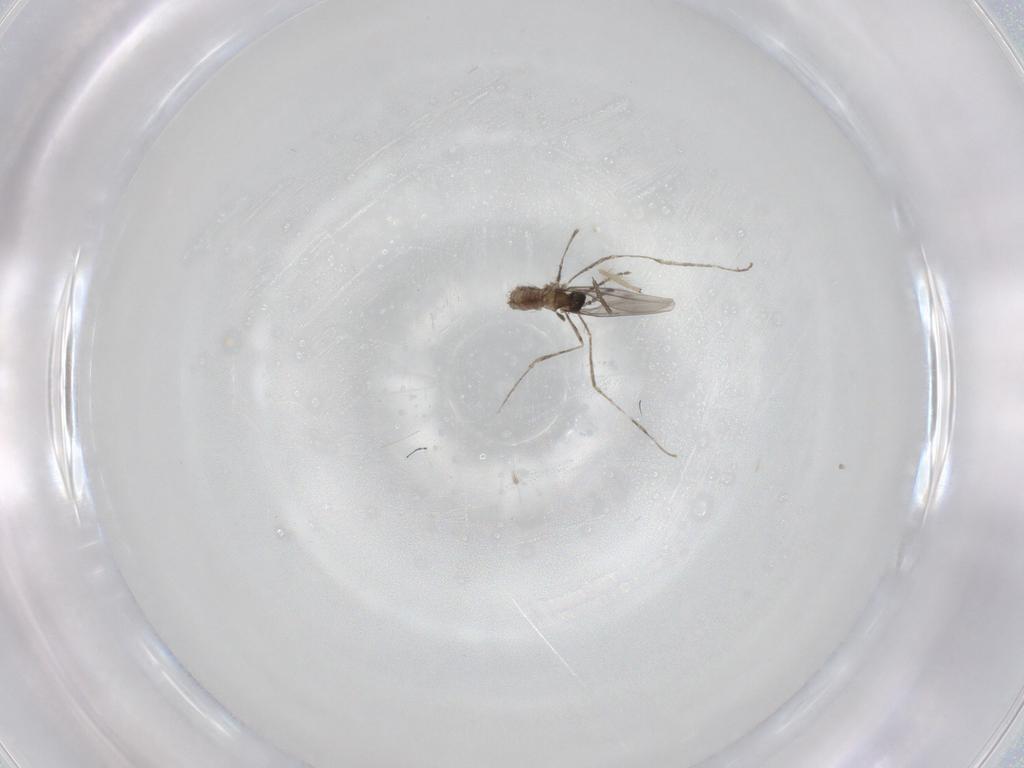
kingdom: Animalia
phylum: Arthropoda
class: Insecta
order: Diptera
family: Cecidomyiidae
